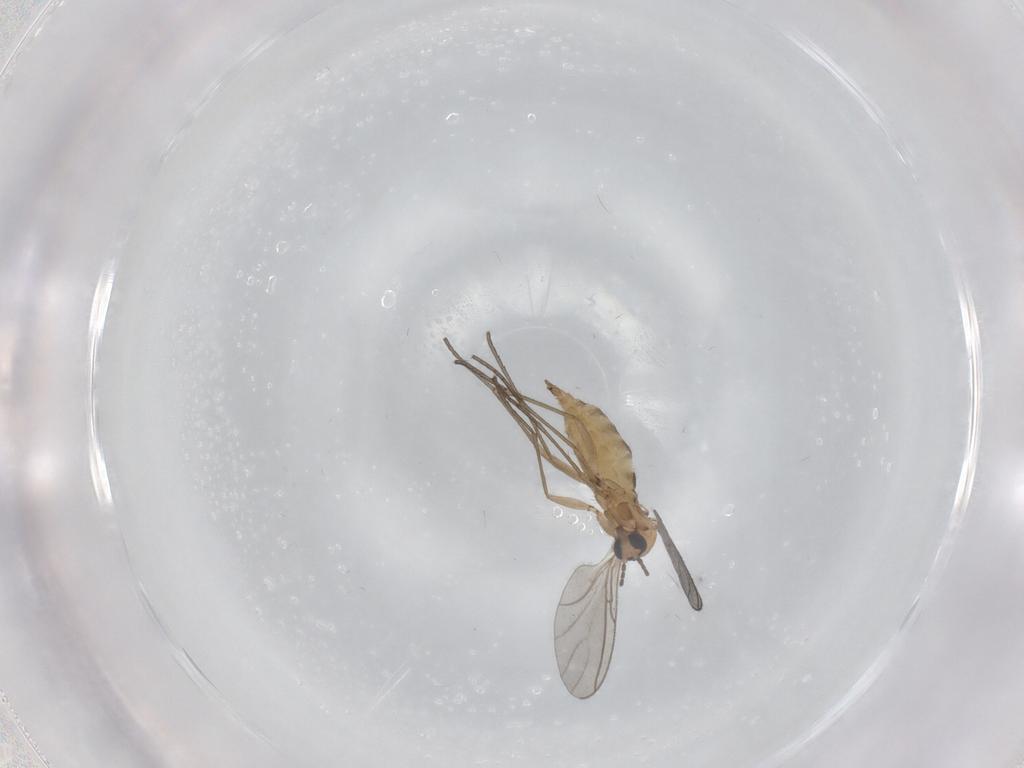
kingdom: Animalia
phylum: Arthropoda
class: Insecta
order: Diptera
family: Sciaridae
